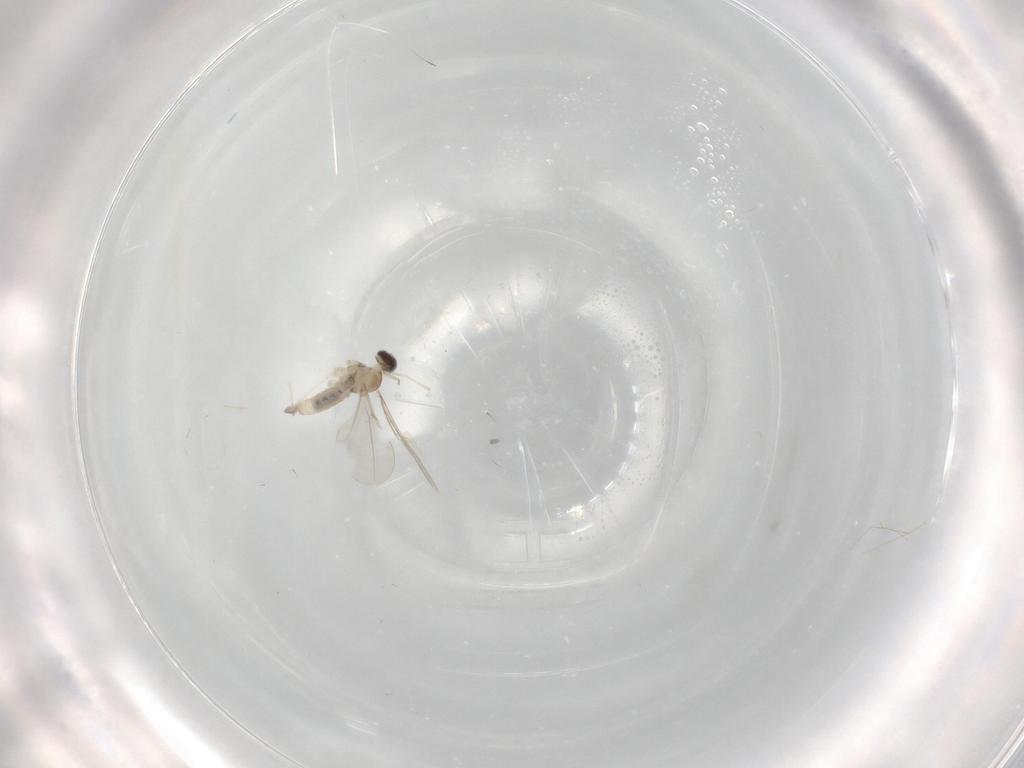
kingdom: Animalia
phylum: Arthropoda
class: Insecta
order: Diptera
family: Cecidomyiidae
